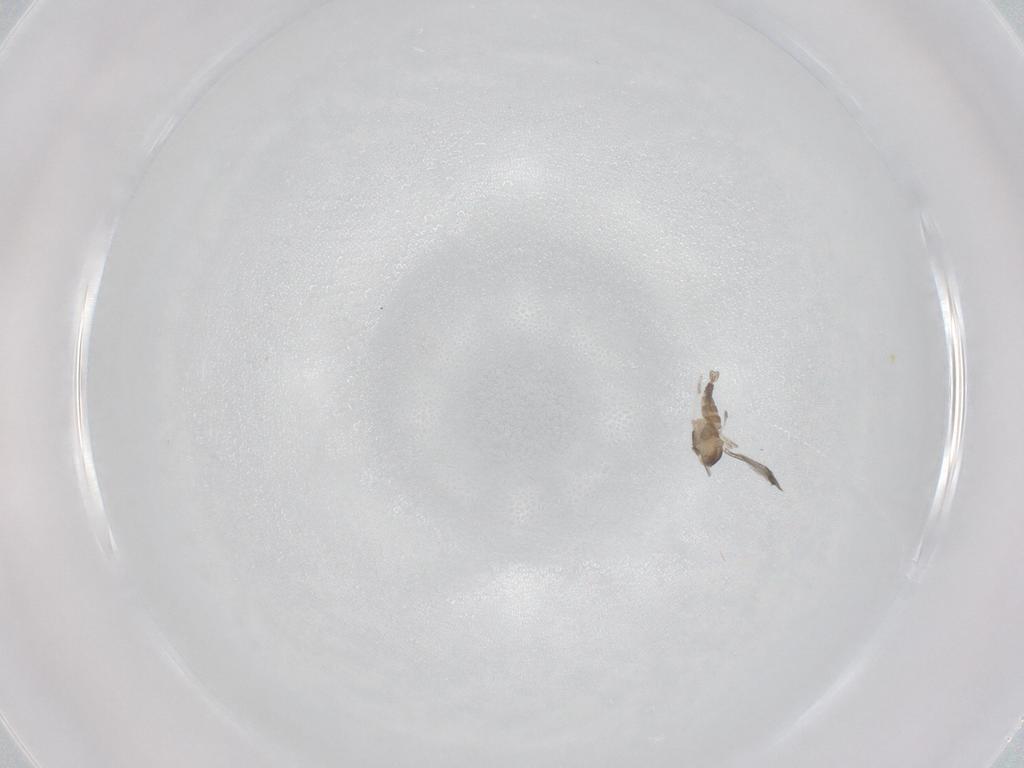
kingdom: Animalia
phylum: Arthropoda
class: Insecta
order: Diptera
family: Cecidomyiidae
